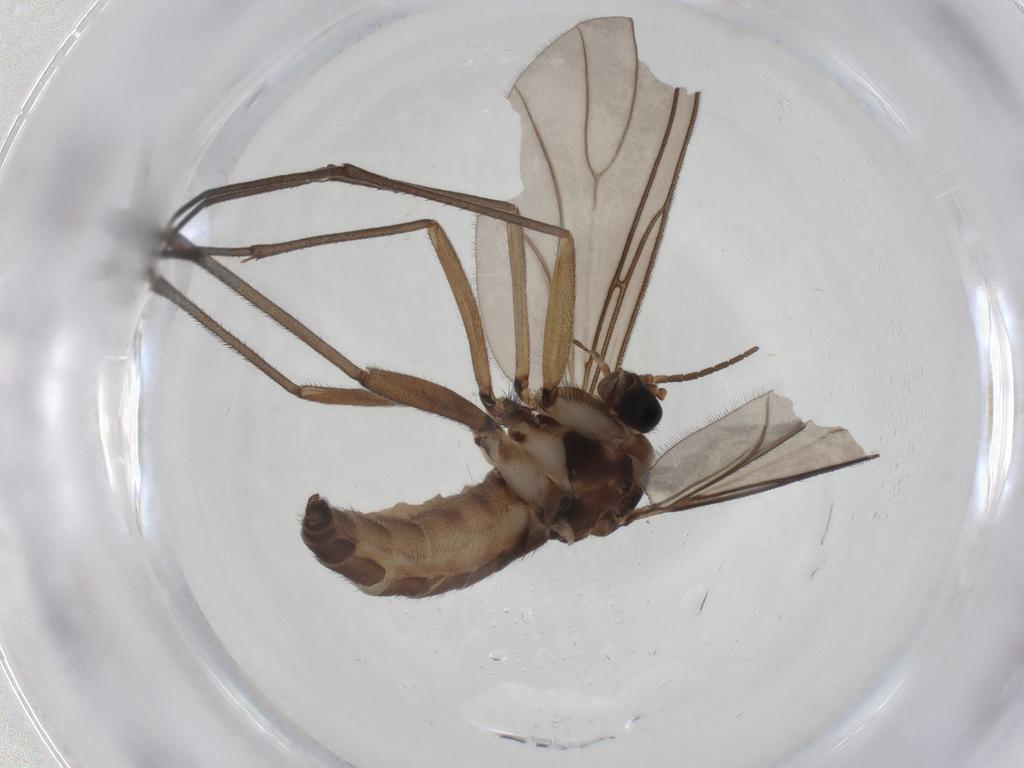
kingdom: Animalia
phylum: Arthropoda
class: Insecta
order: Diptera
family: Sciaridae
